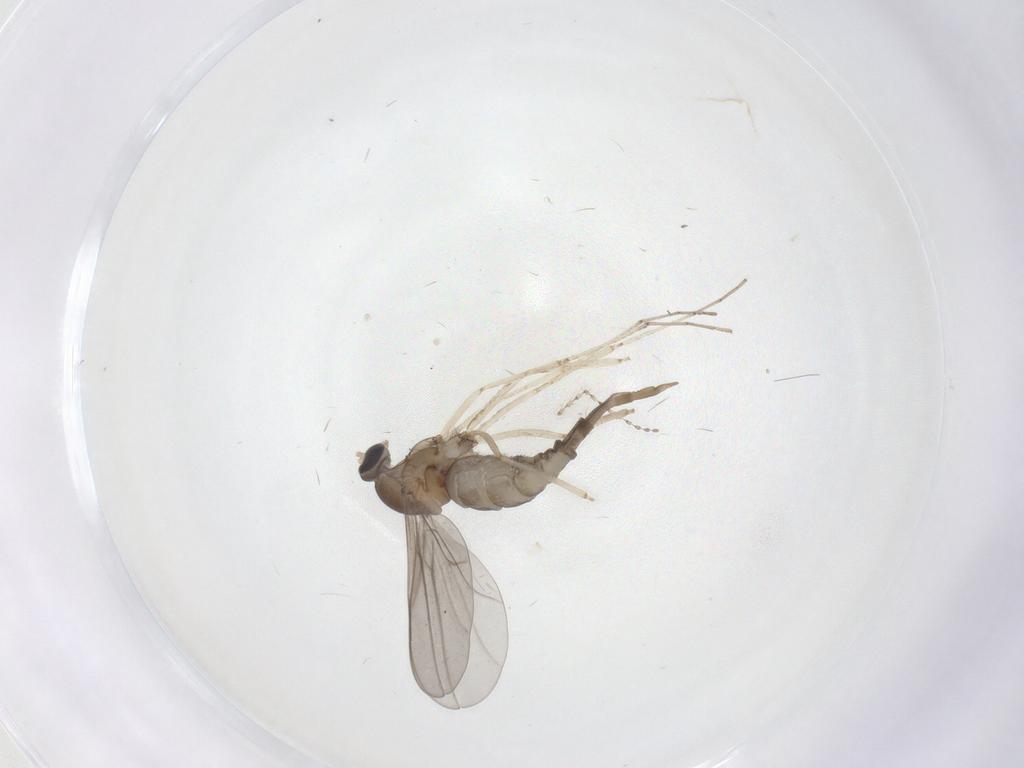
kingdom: Animalia
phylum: Arthropoda
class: Insecta
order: Diptera
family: Cecidomyiidae
